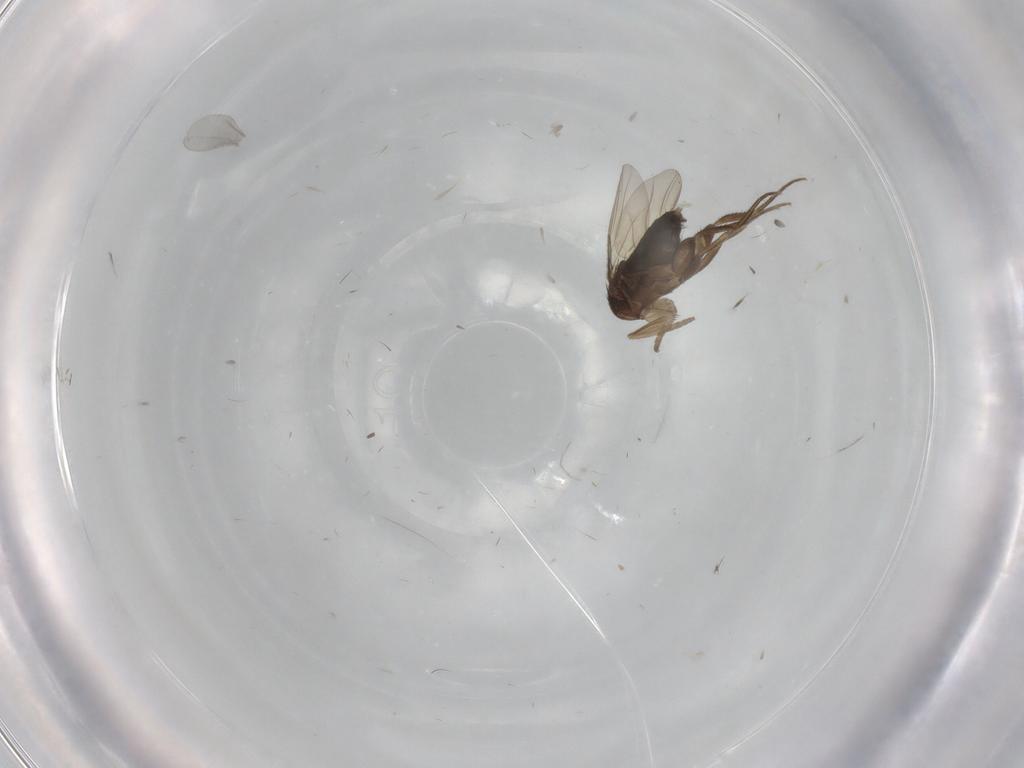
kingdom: Animalia
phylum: Arthropoda
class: Insecta
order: Diptera
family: Phoridae
